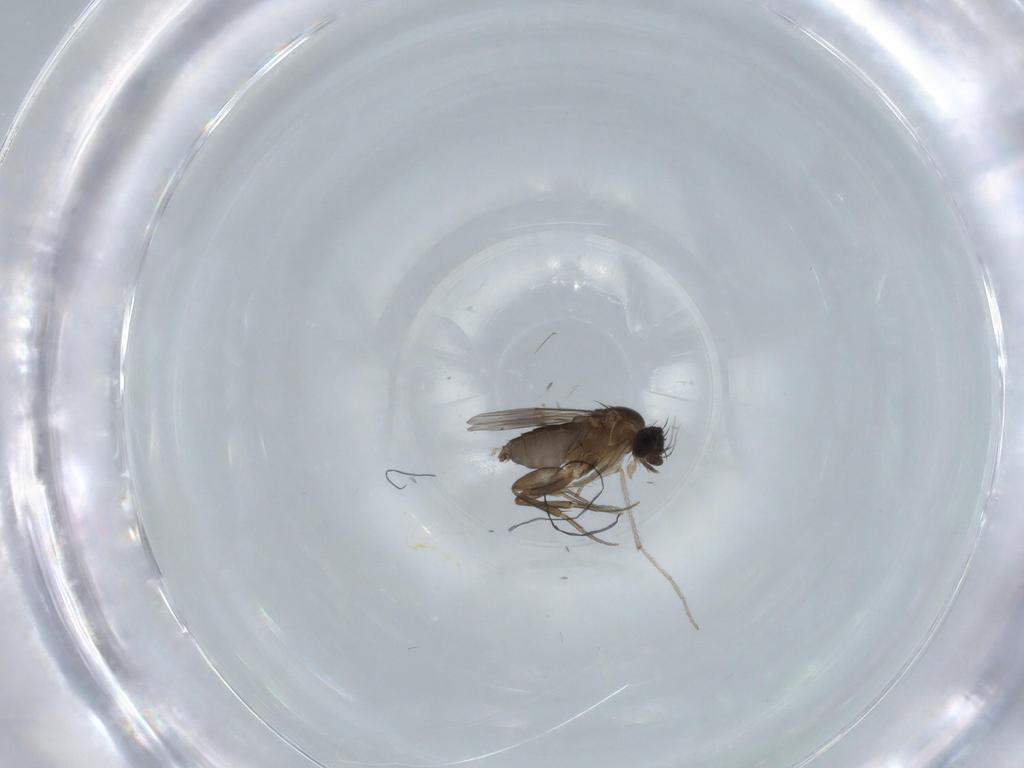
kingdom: Animalia
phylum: Arthropoda
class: Insecta
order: Diptera
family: Phoridae
